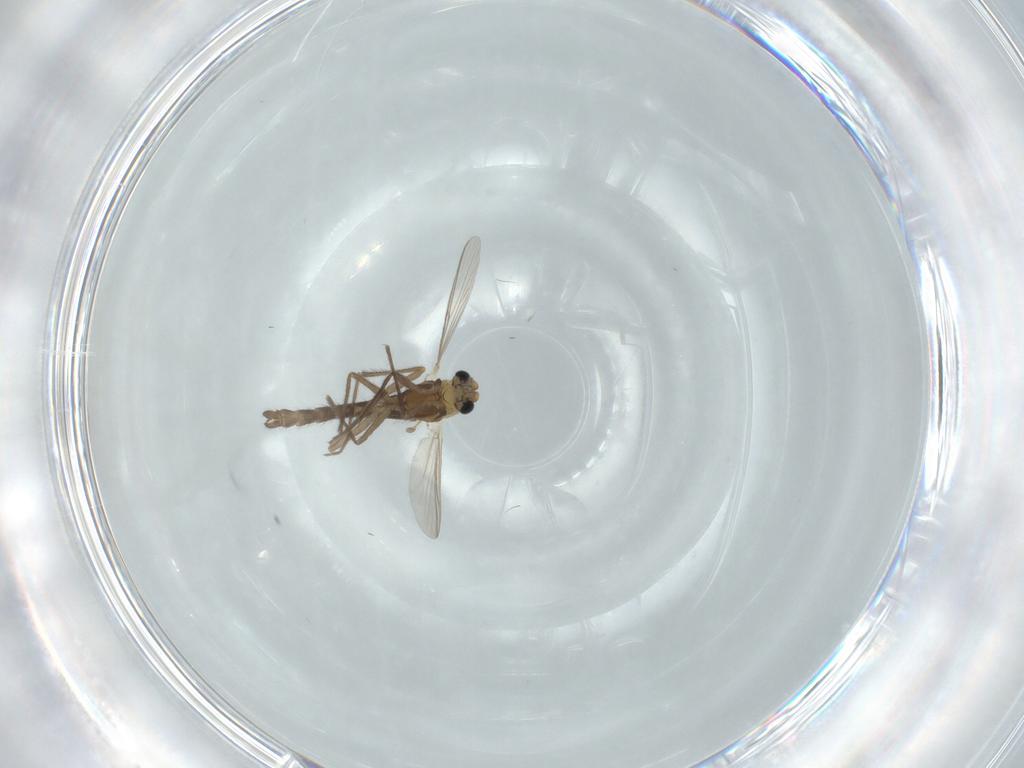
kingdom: Animalia
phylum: Arthropoda
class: Insecta
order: Diptera
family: Chironomidae
